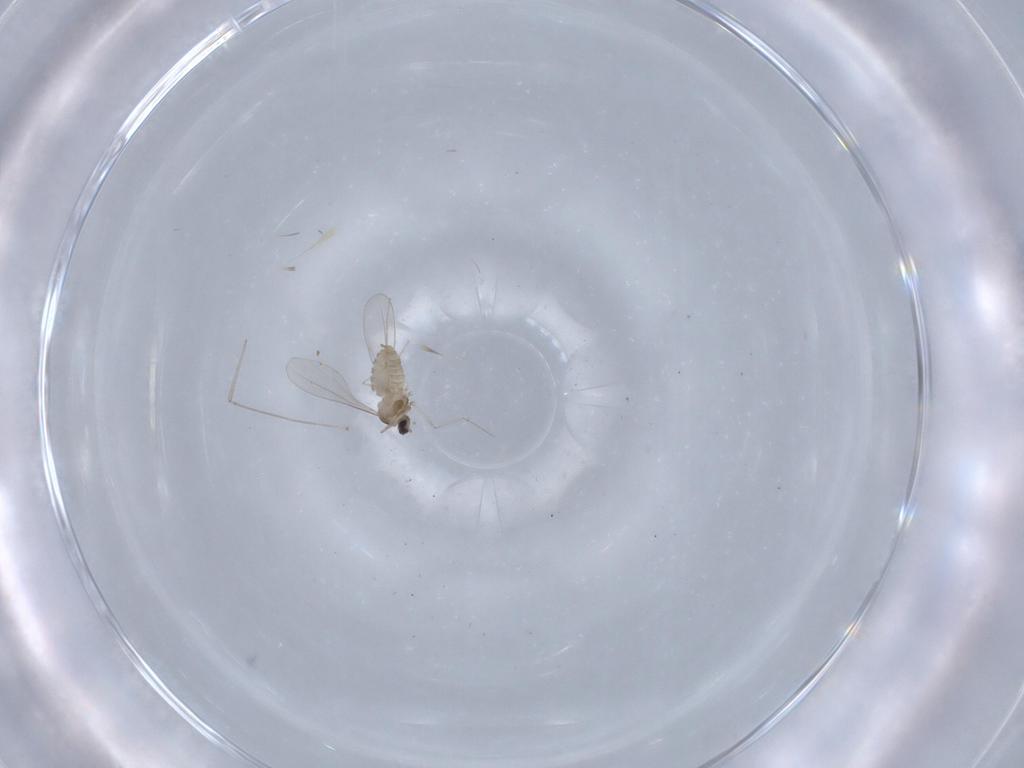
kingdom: Animalia
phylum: Arthropoda
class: Insecta
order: Diptera
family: Cecidomyiidae
